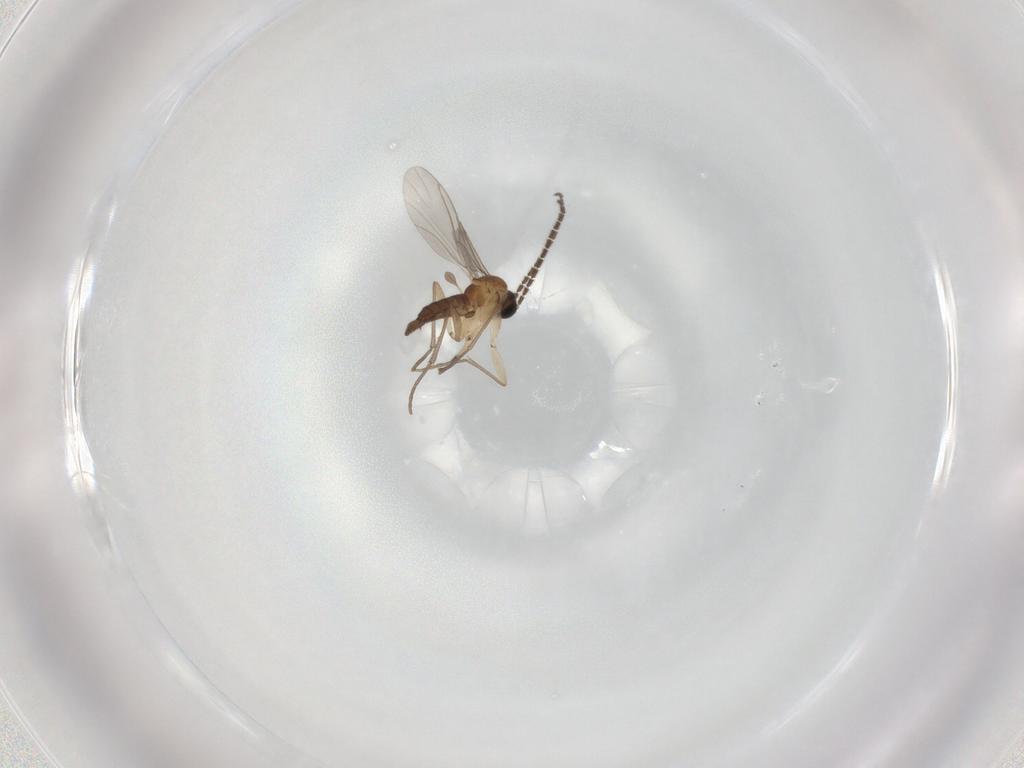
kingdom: Animalia
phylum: Arthropoda
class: Insecta
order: Diptera
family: Sciaridae
